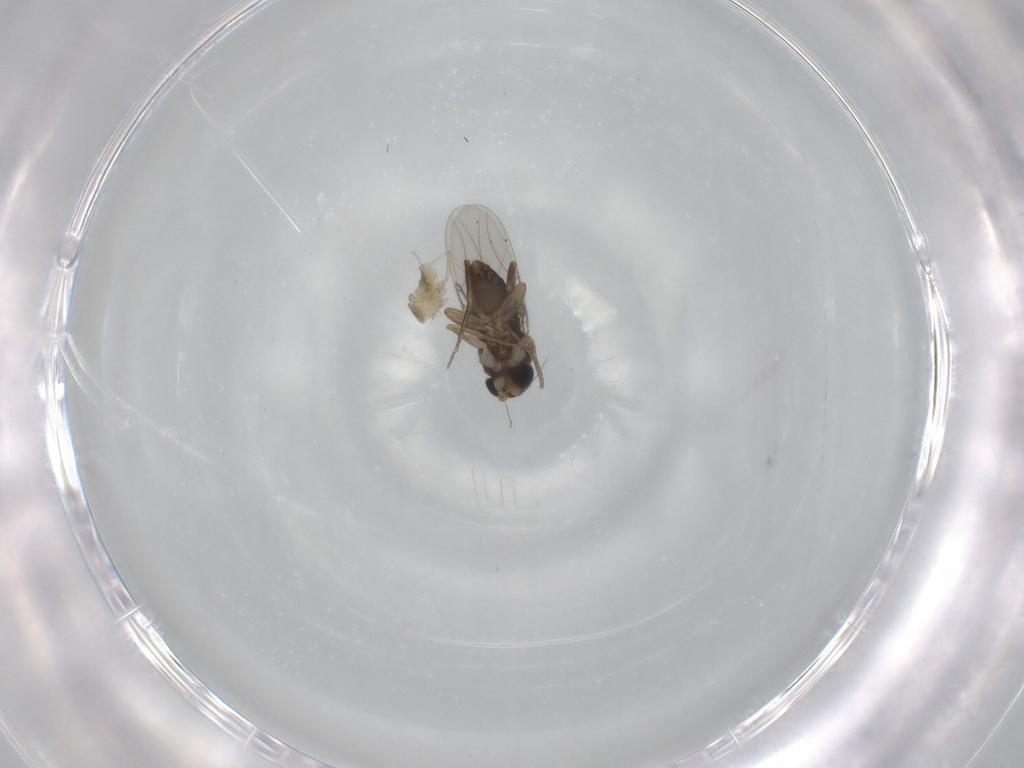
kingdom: Animalia
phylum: Arthropoda
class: Insecta
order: Diptera
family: Phoridae
